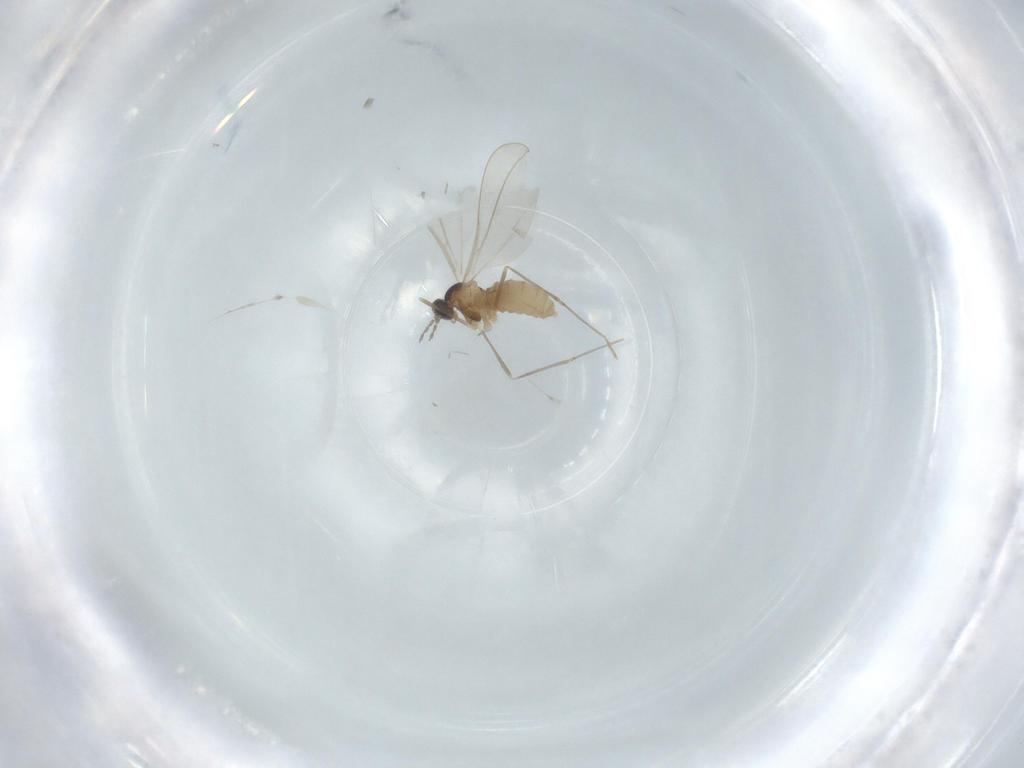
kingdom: Animalia
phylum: Arthropoda
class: Insecta
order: Diptera
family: Cecidomyiidae
